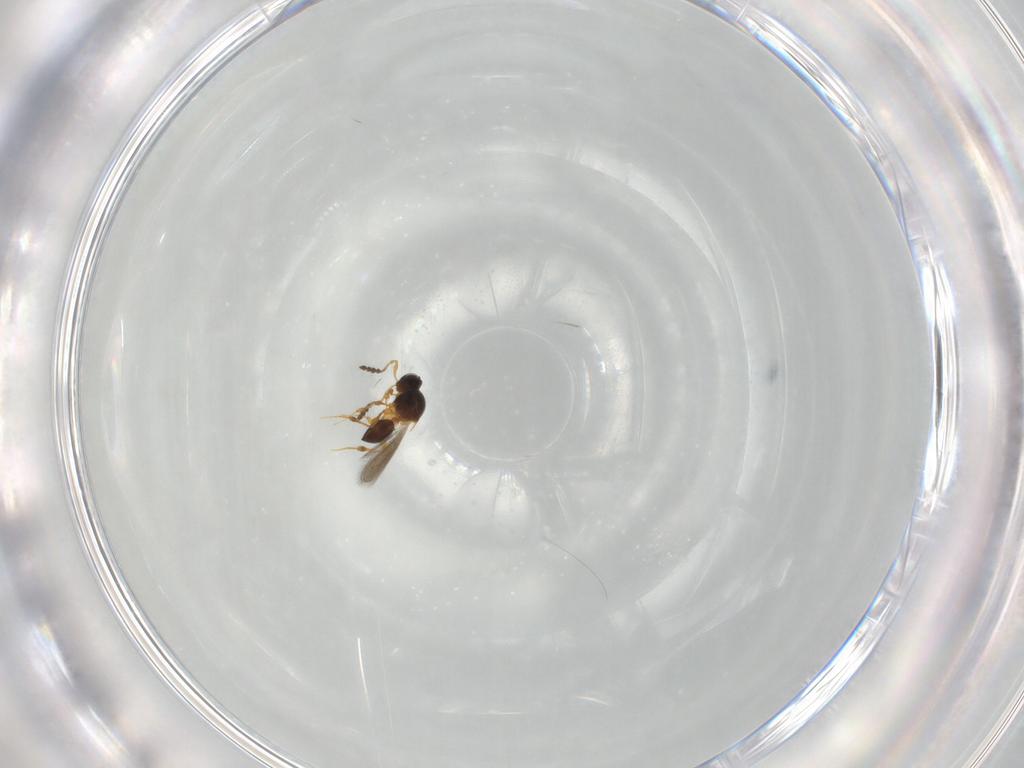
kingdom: Animalia
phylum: Arthropoda
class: Insecta
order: Hymenoptera
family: Platygastridae
